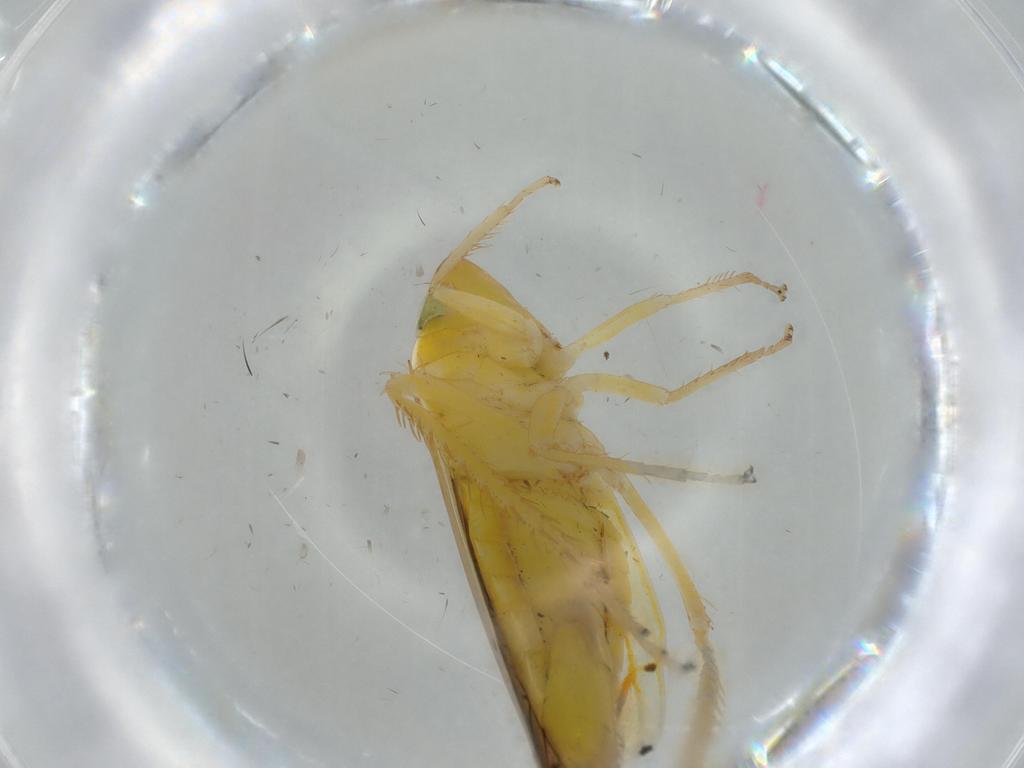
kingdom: Animalia
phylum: Arthropoda
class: Insecta
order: Hemiptera
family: Cicadellidae
